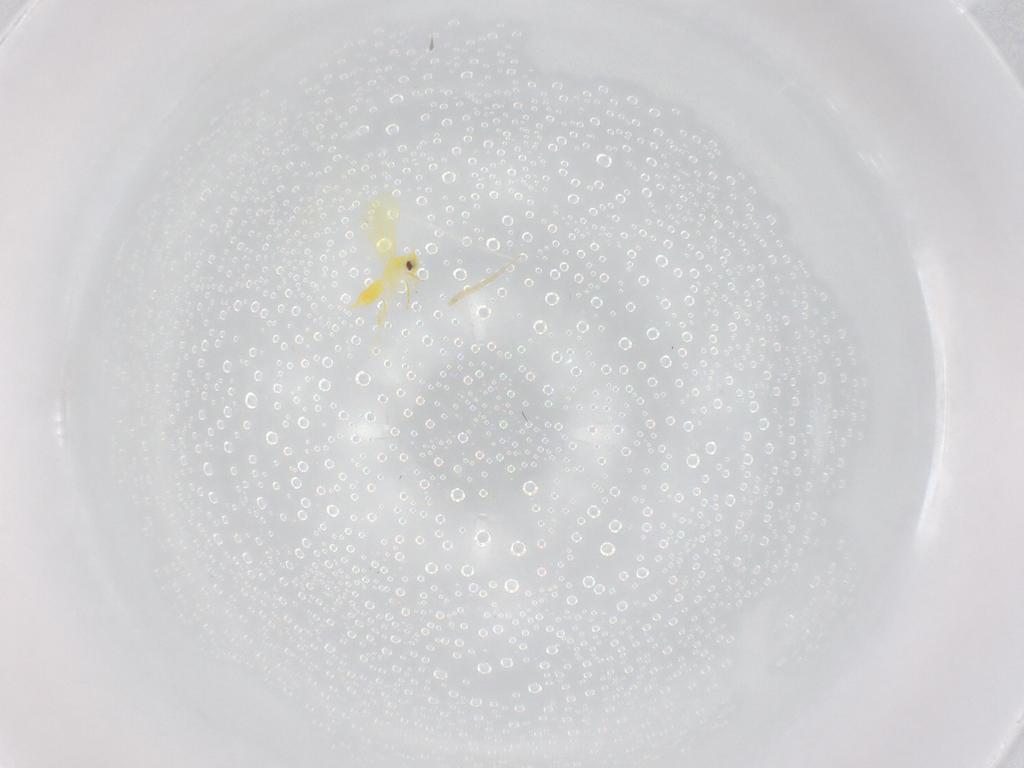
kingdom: Animalia
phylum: Arthropoda
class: Insecta
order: Hemiptera
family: Aleyrodidae
